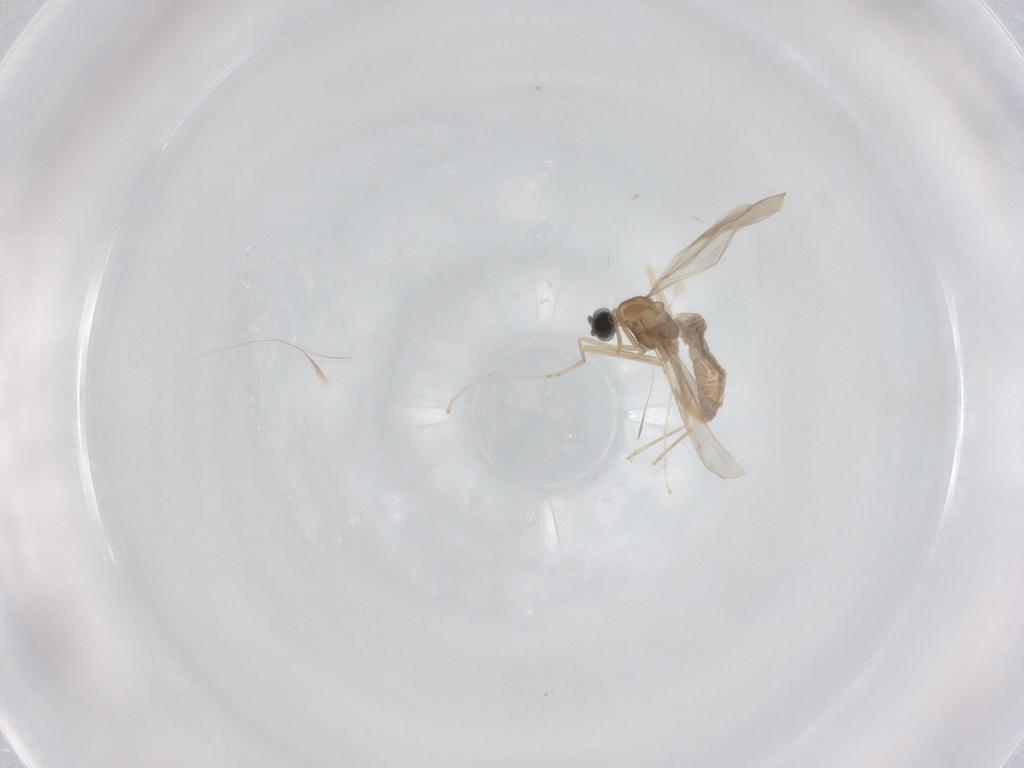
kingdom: Animalia
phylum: Arthropoda
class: Insecta
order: Diptera
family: Cecidomyiidae
